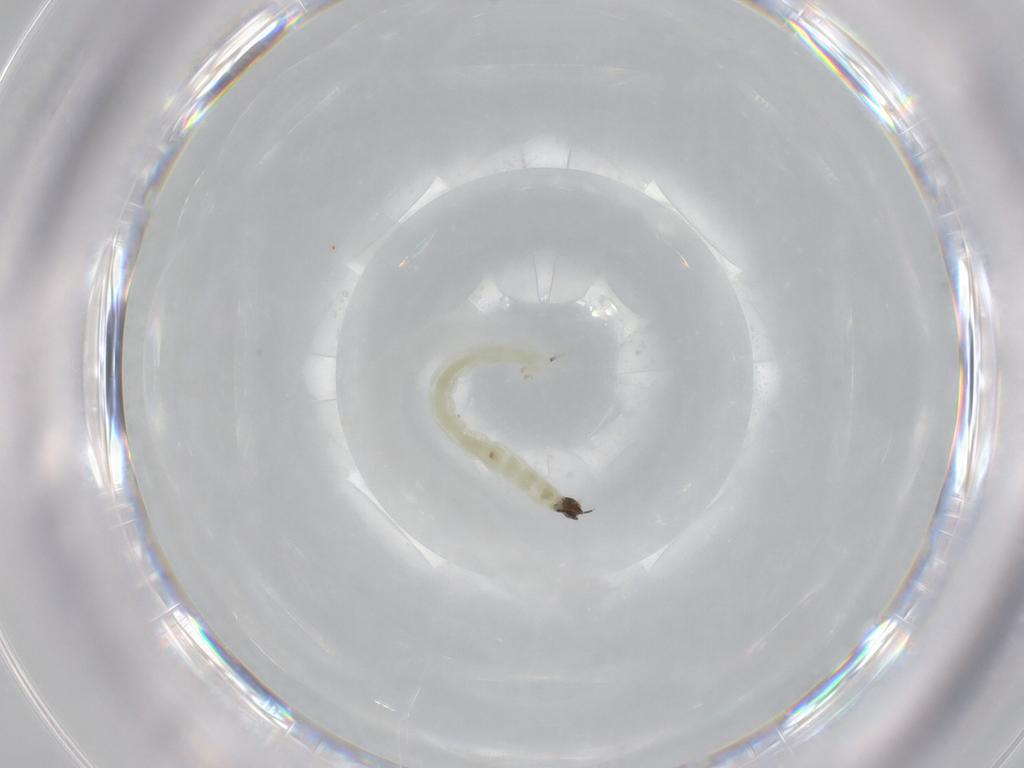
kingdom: Animalia
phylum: Arthropoda
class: Insecta
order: Diptera
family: Chironomidae
